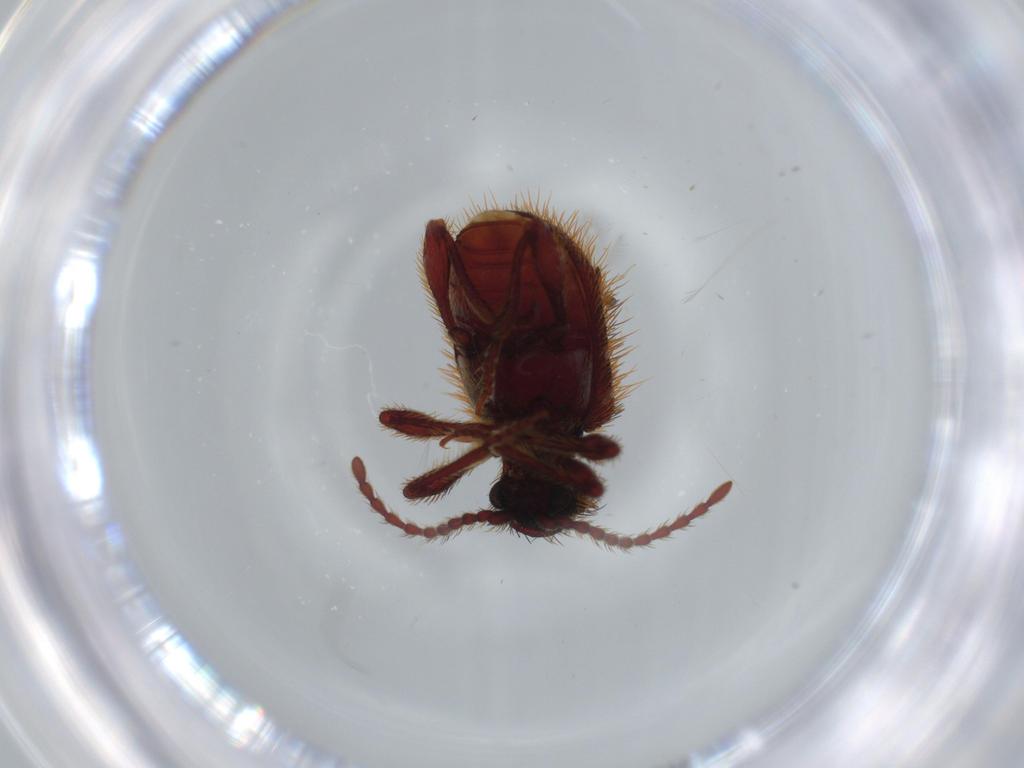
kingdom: Animalia
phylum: Arthropoda
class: Insecta
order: Coleoptera
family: Ptinidae
